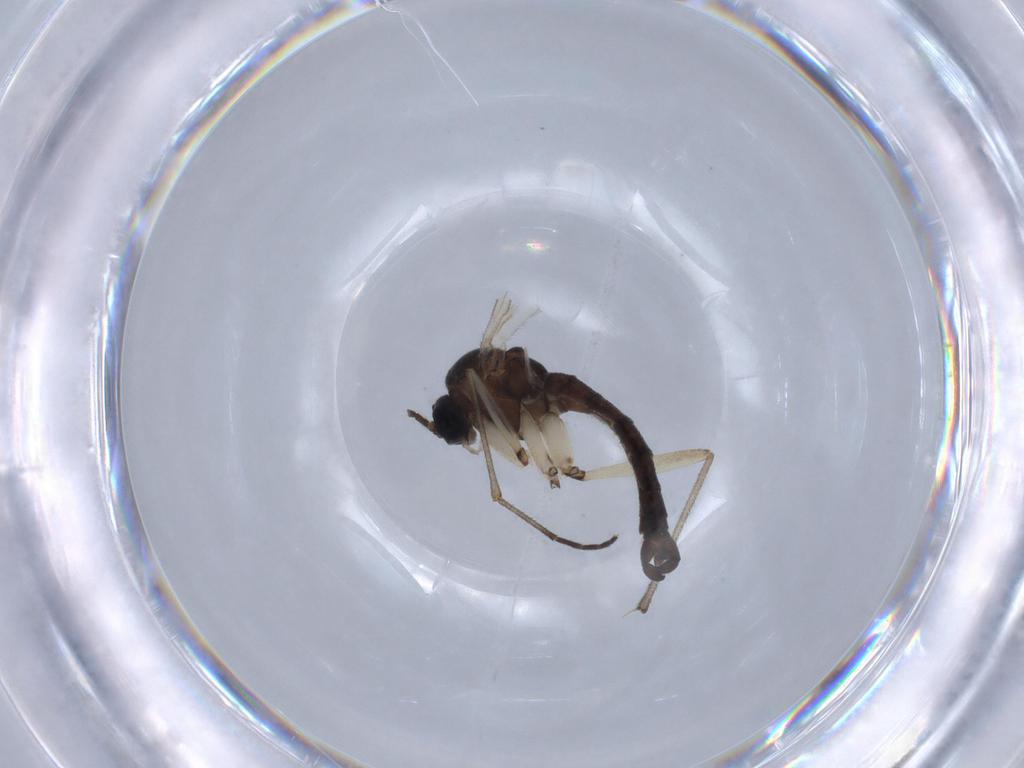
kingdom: Animalia
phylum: Arthropoda
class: Insecta
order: Diptera
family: Sciaridae
